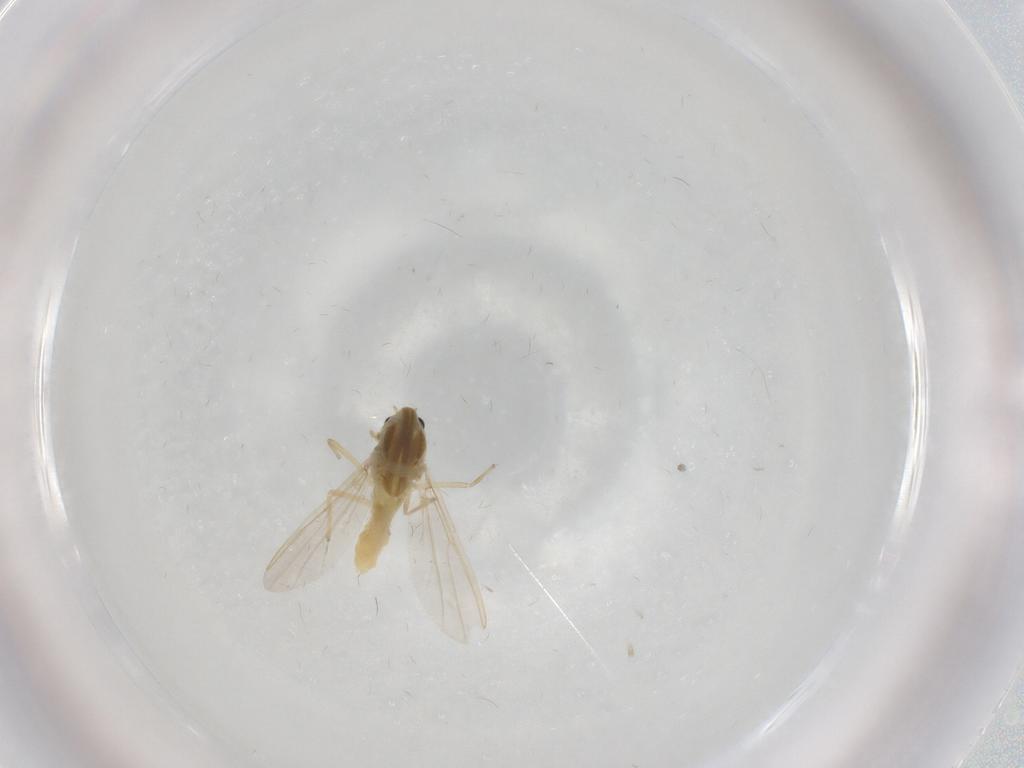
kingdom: Animalia
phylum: Arthropoda
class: Insecta
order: Diptera
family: Chironomidae
